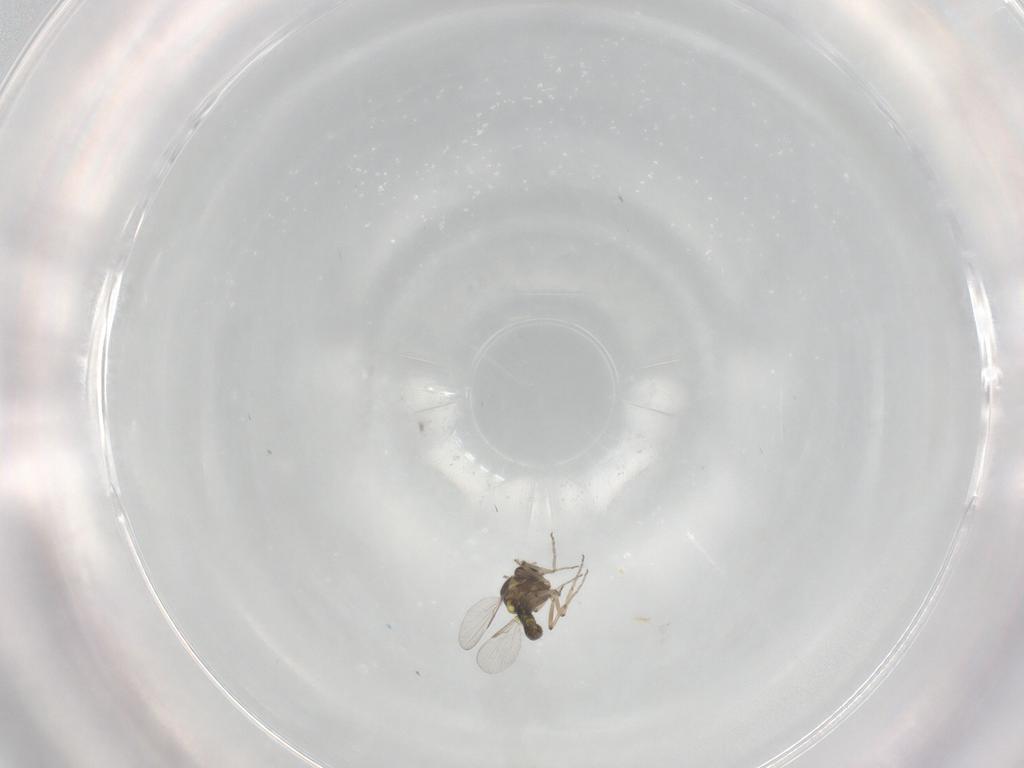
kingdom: Animalia
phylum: Arthropoda
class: Insecta
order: Diptera
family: Ceratopogonidae
